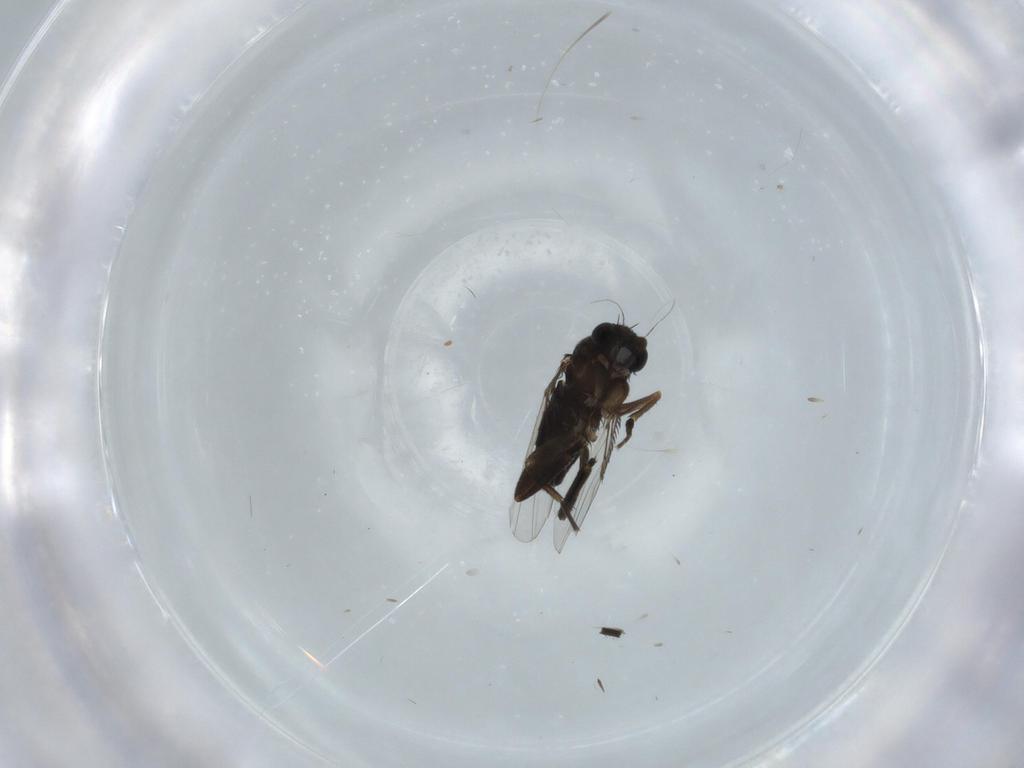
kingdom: Animalia
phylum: Arthropoda
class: Insecta
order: Diptera
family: Phoridae
